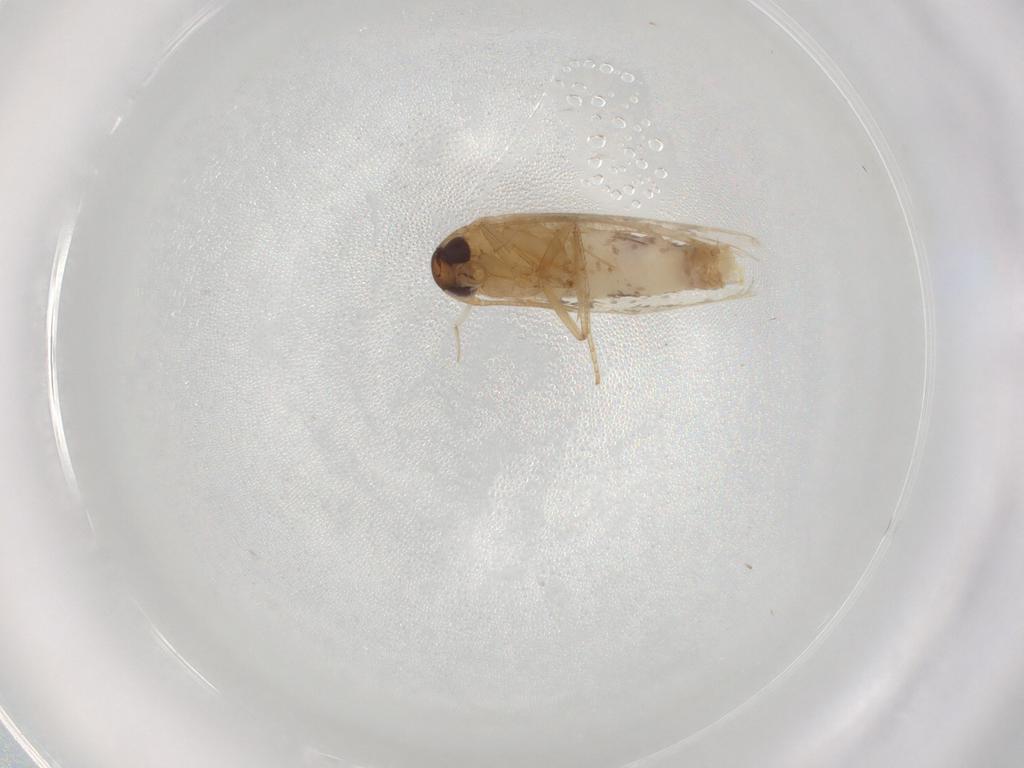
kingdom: Animalia
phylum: Arthropoda
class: Insecta
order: Lepidoptera
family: Cosmopterigidae
